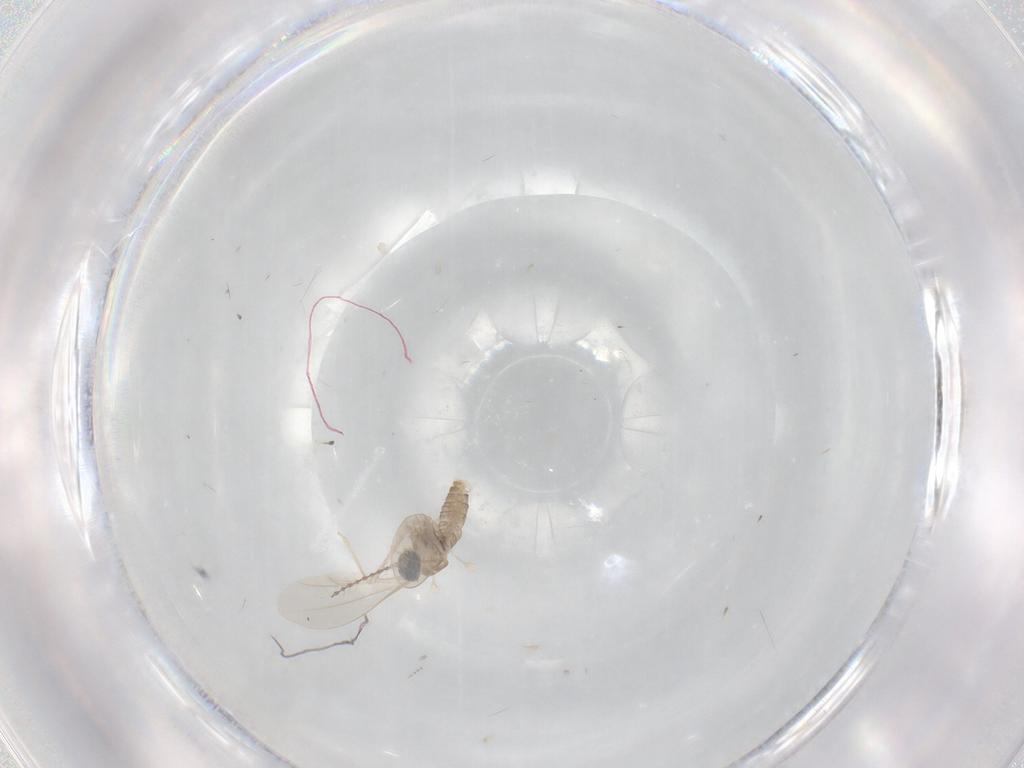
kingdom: Animalia
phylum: Arthropoda
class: Insecta
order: Diptera
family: Cecidomyiidae
